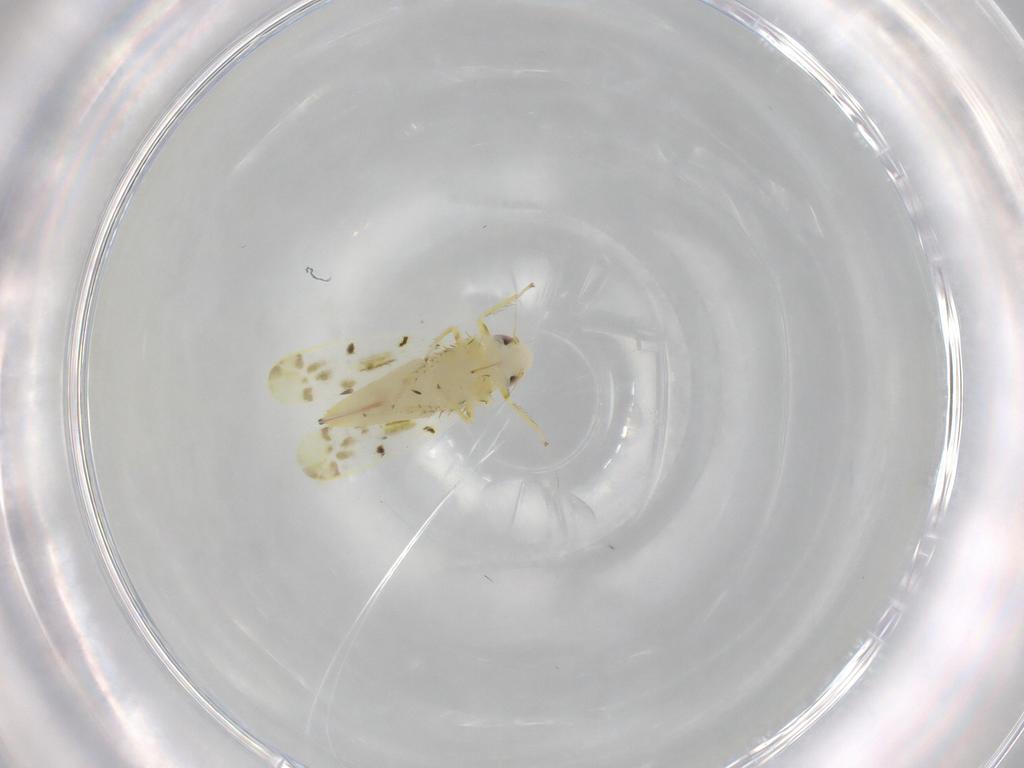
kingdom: Animalia
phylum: Arthropoda
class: Insecta
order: Hemiptera
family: Cicadellidae
